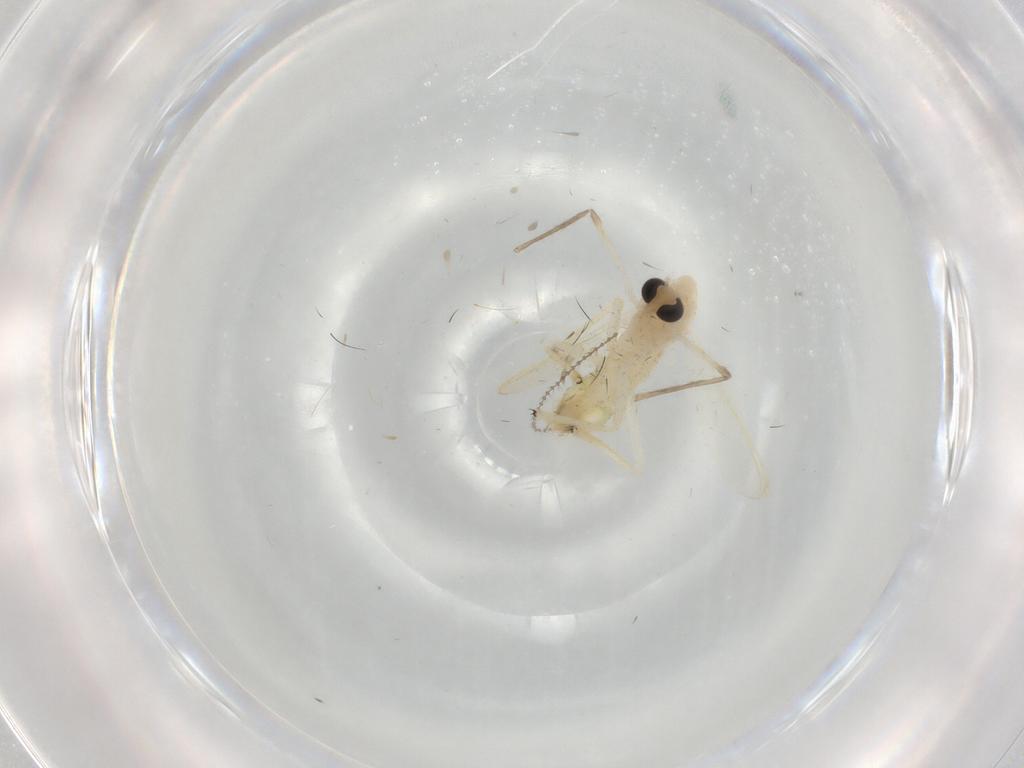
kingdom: Animalia
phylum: Arthropoda
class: Insecta
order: Diptera
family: Chironomidae
